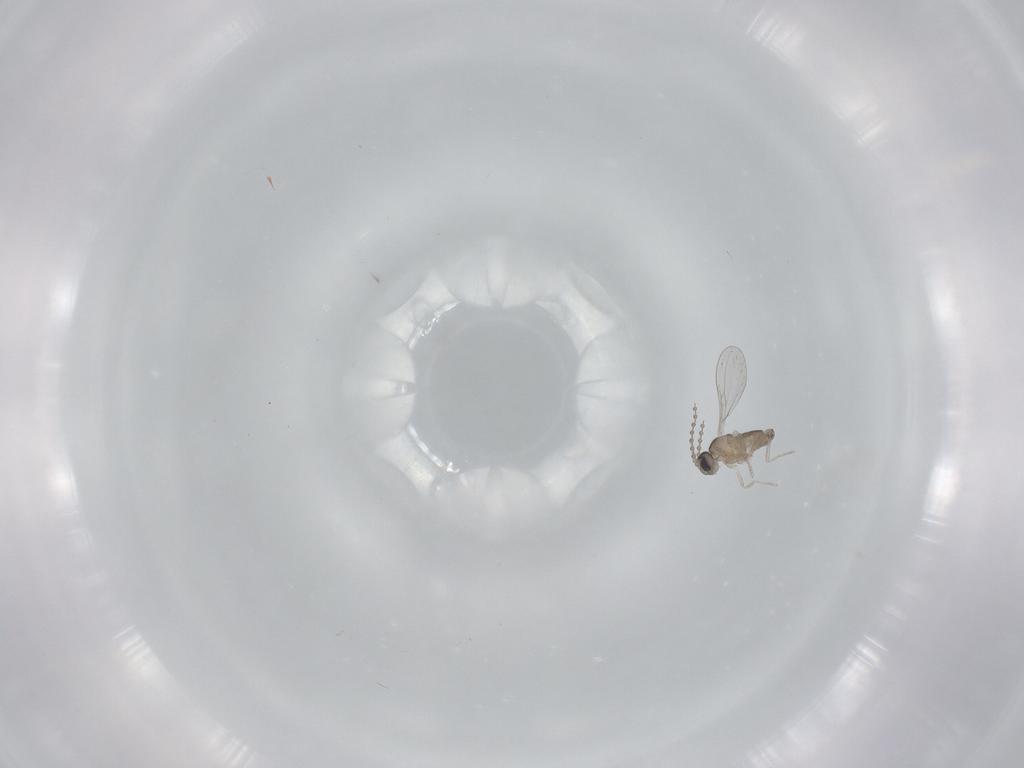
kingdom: Animalia
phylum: Arthropoda
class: Insecta
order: Diptera
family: Cecidomyiidae
